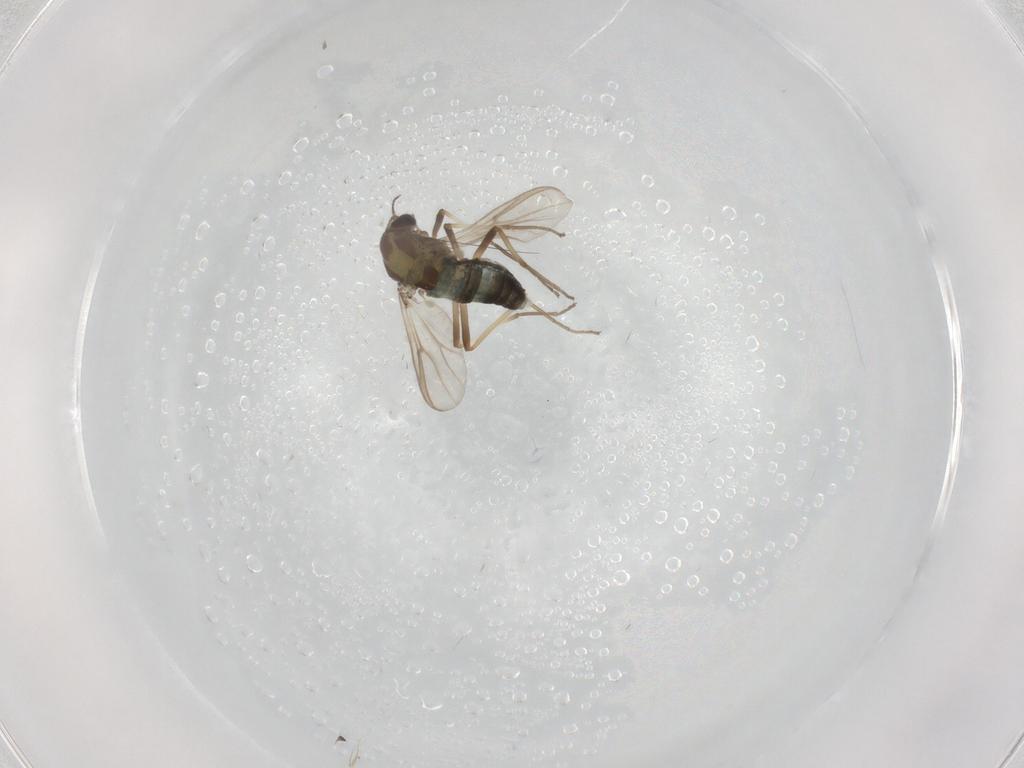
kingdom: Animalia
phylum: Arthropoda
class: Insecta
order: Diptera
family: Chironomidae
